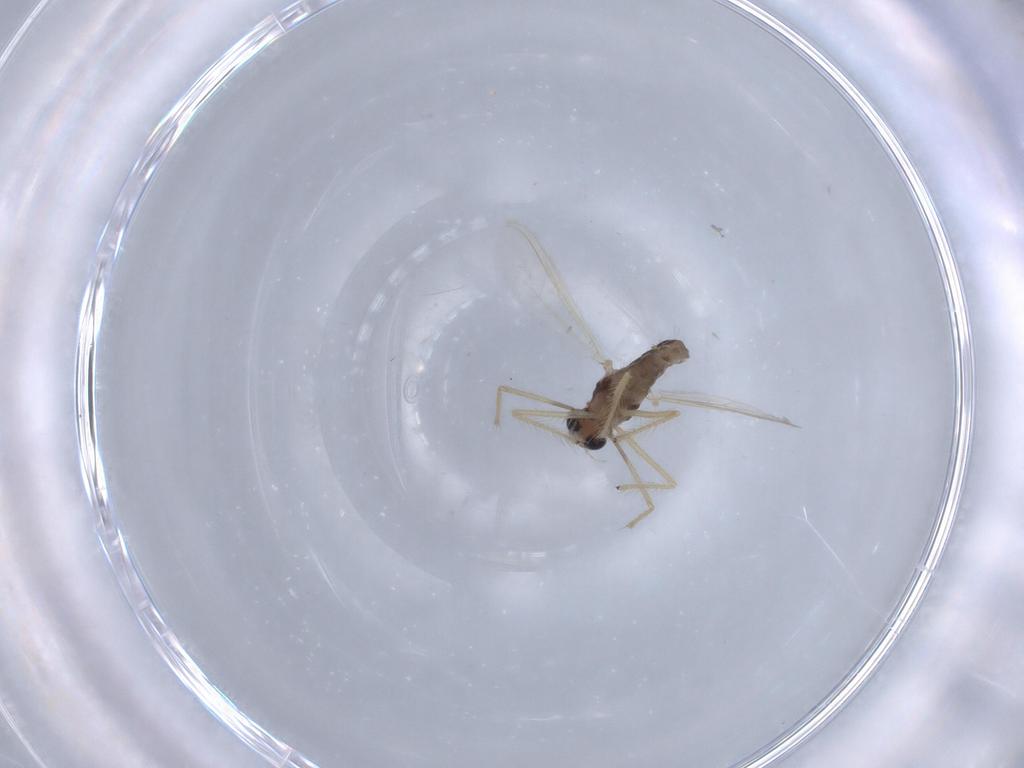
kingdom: Animalia
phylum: Arthropoda
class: Insecta
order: Diptera
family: Chironomidae
